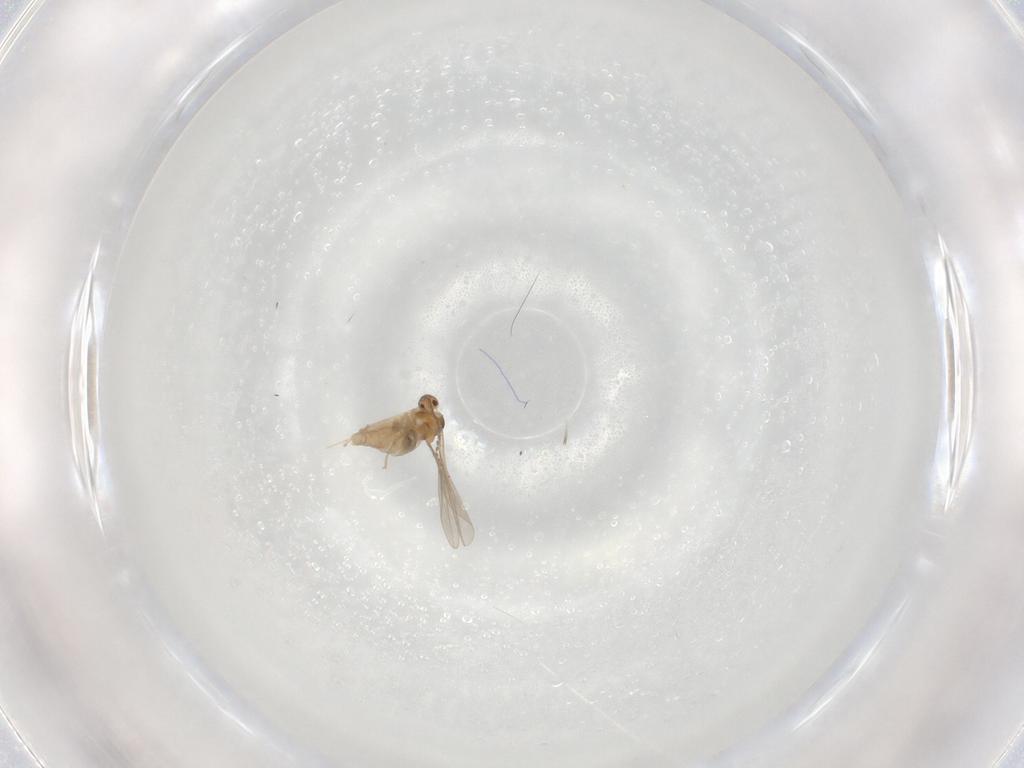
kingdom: Animalia
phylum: Arthropoda
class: Insecta
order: Diptera
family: Cecidomyiidae
